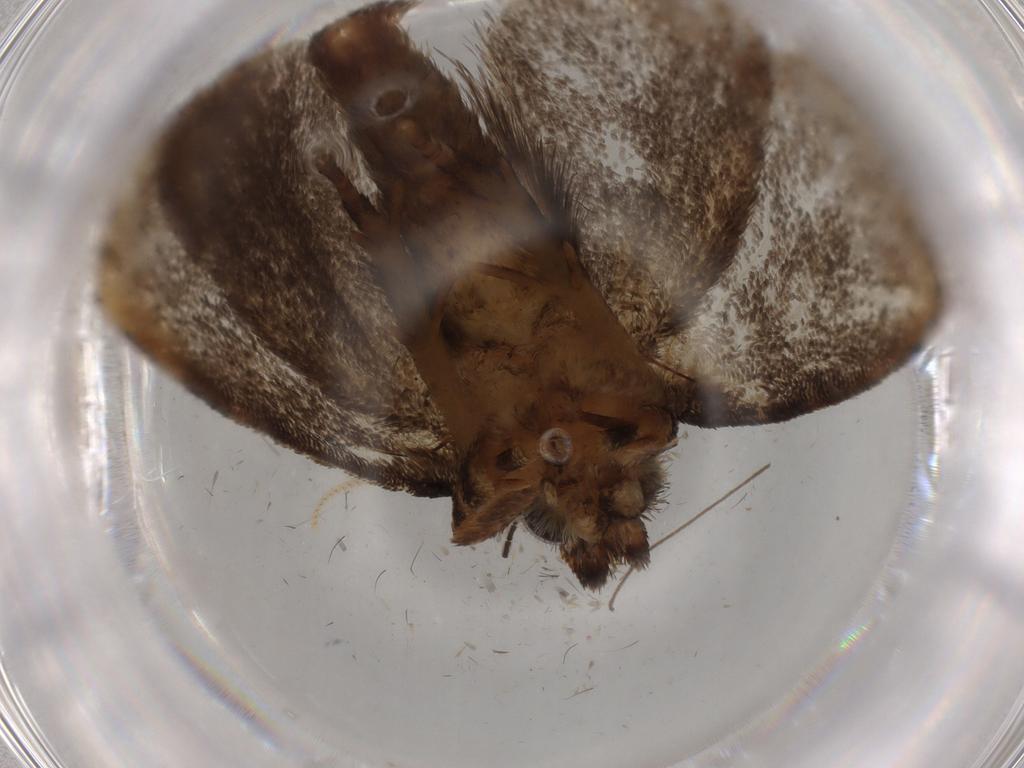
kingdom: Animalia
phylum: Arthropoda
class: Insecta
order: Lepidoptera
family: Tineidae
